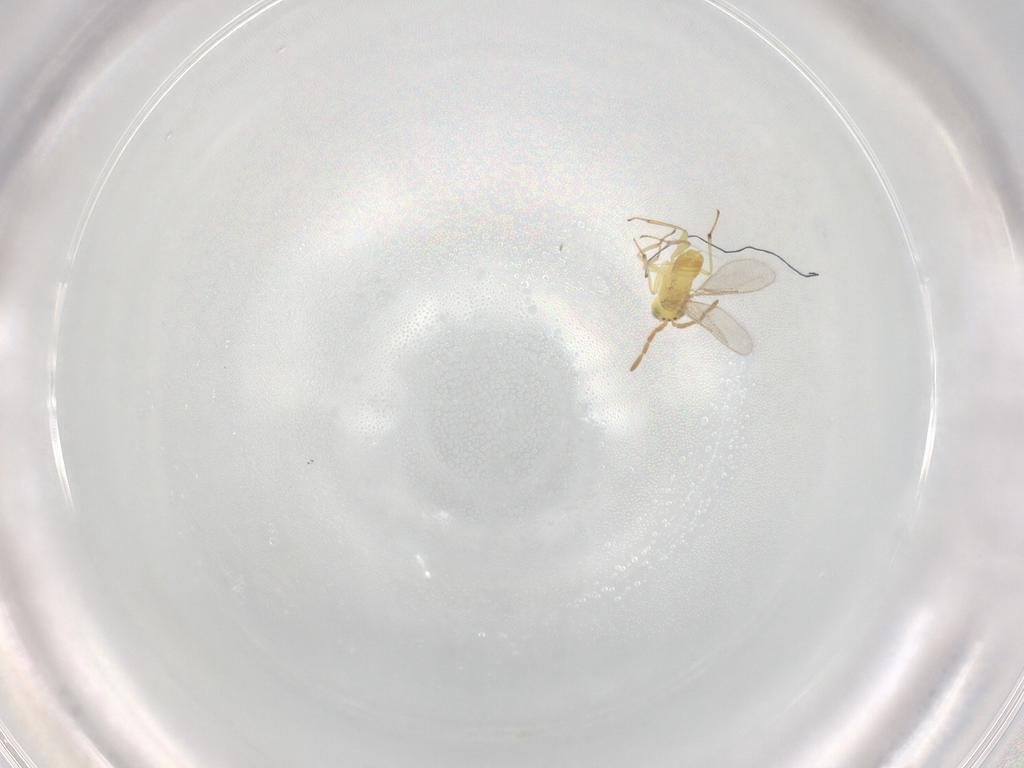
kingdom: Animalia
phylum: Arthropoda
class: Insecta
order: Hymenoptera
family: Aphelinidae
